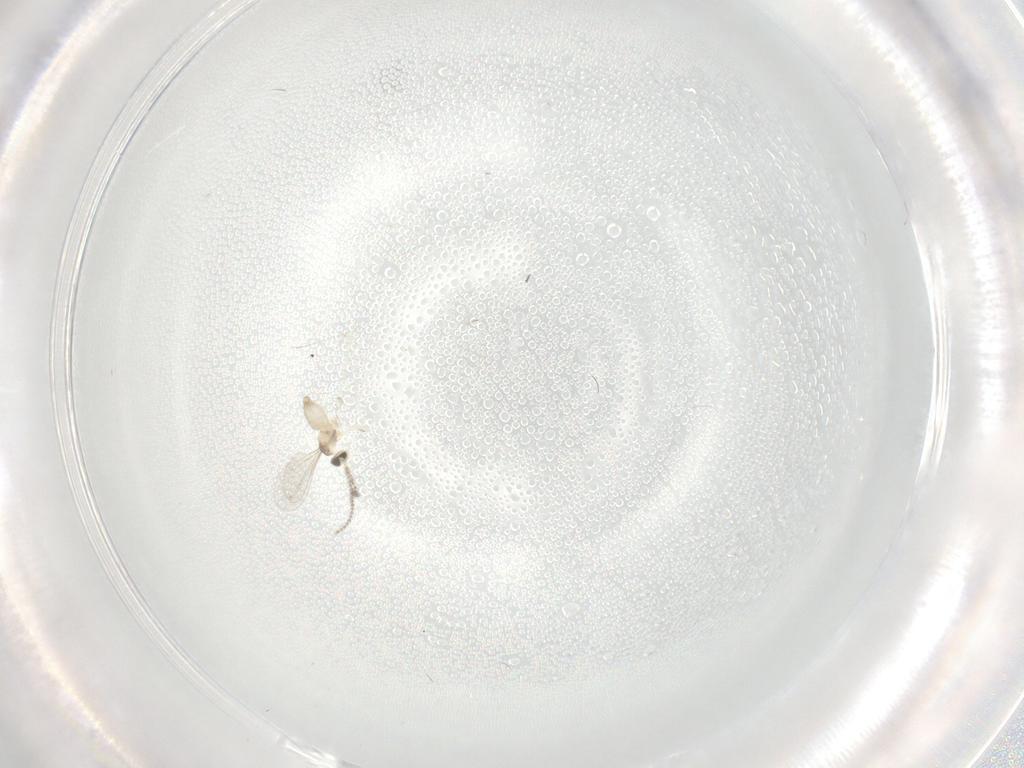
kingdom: Animalia
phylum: Arthropoda
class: Insecta
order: Diptera
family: Cecidomyiidae
